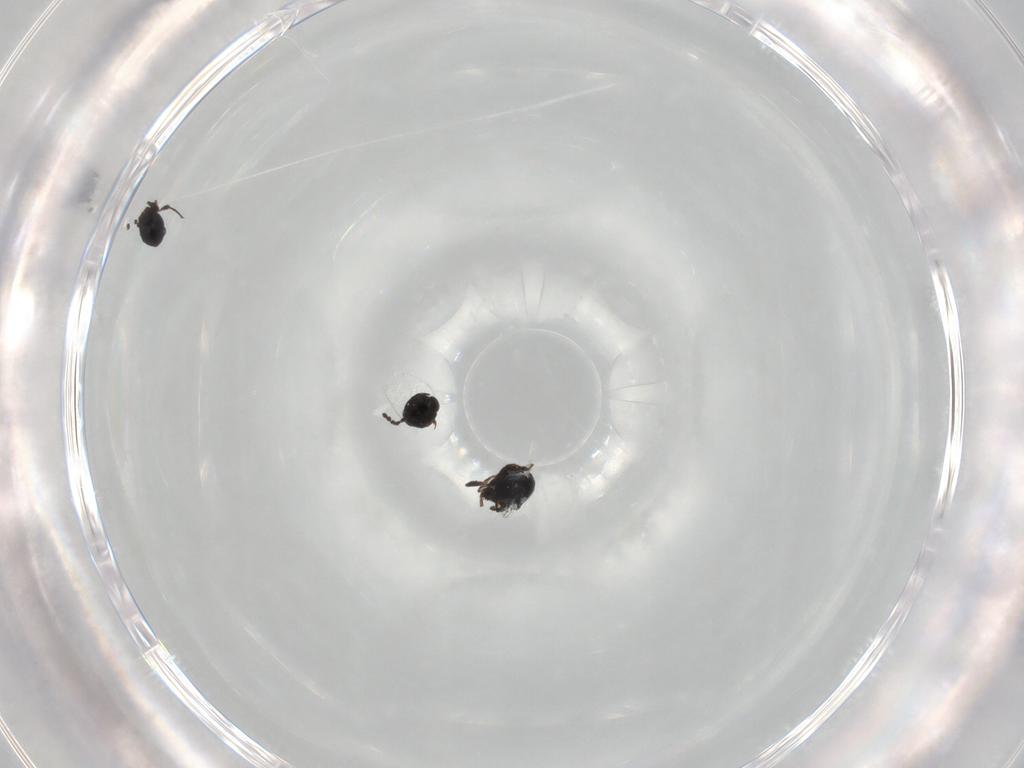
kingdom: Animalia
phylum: Arthropoda
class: Insecta
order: Hymenoptera
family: Platygastridae
